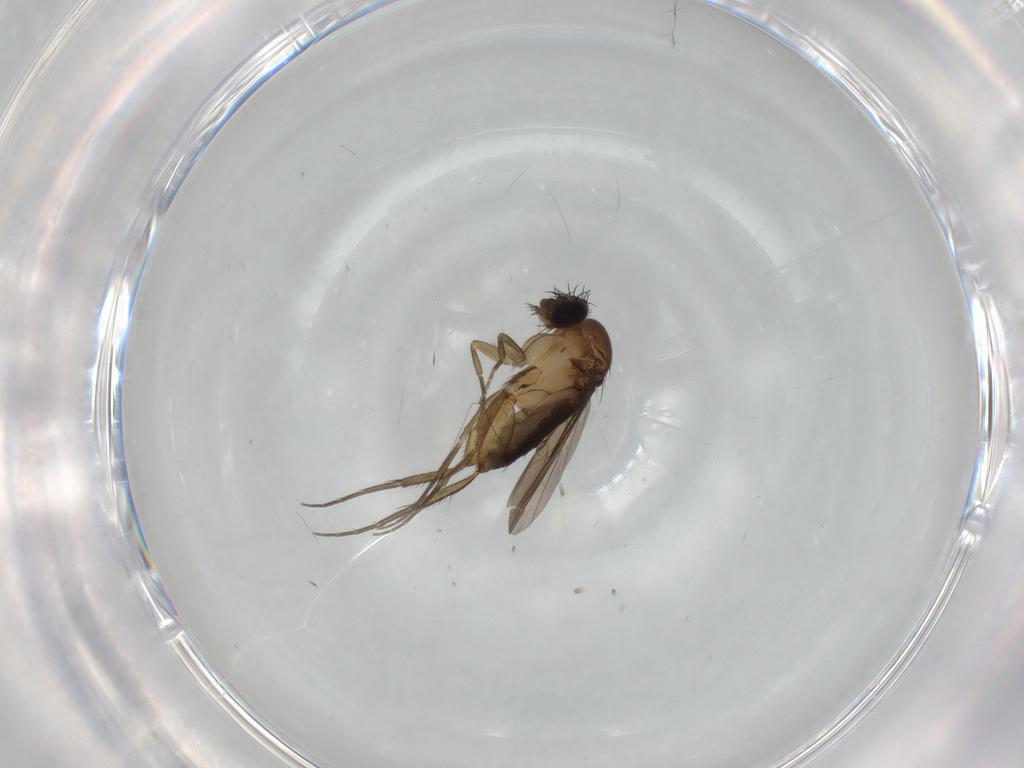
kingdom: Animalia
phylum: Arthropoda
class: Insecta
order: Diptera
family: Phoridae
